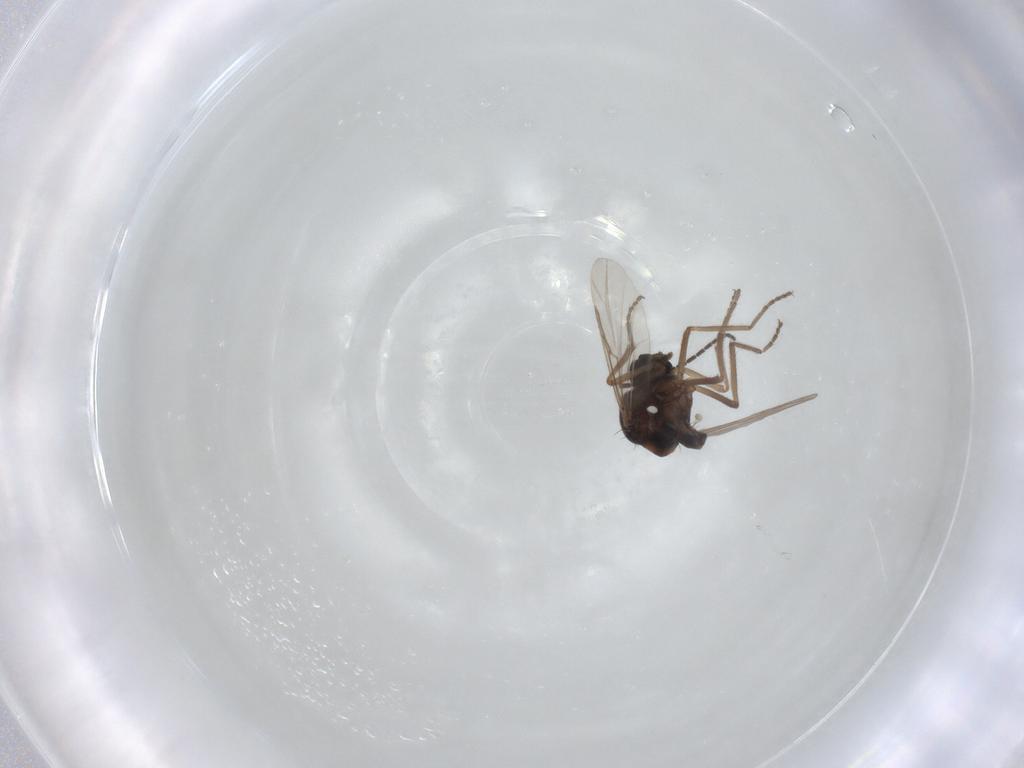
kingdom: Animalia
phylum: Arthropoda
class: Insecta
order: Diptera
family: Ceratopogonidae
